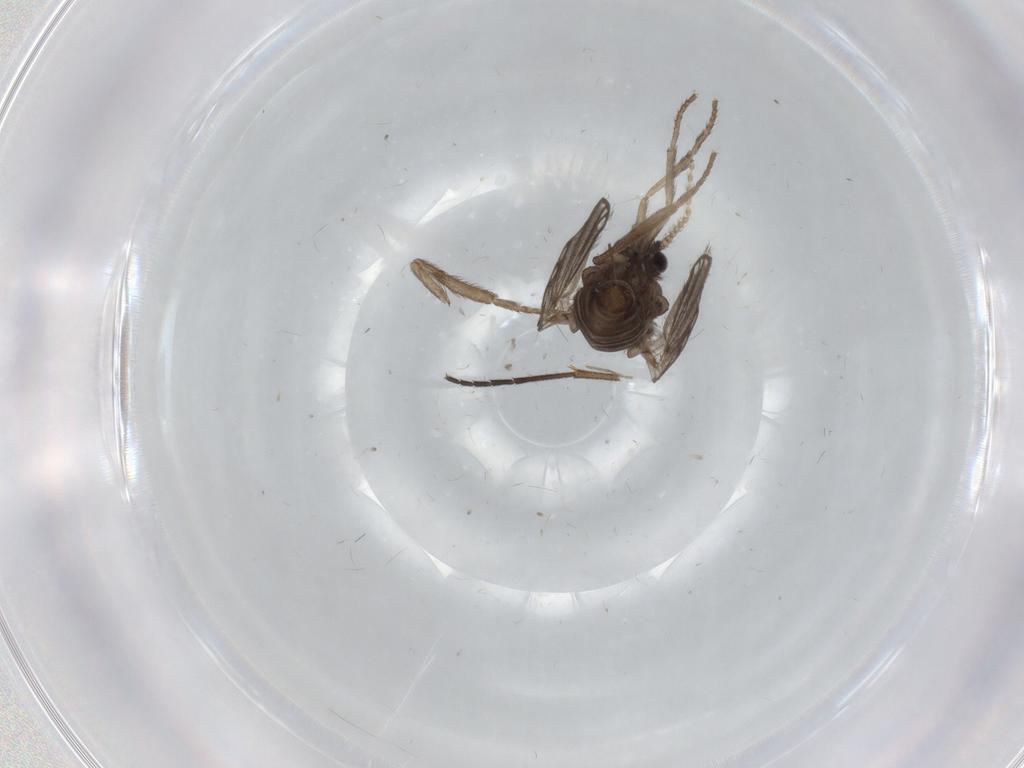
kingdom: Animalia
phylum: Arthropoda
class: Insecta
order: Diptera
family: Psychodidae
